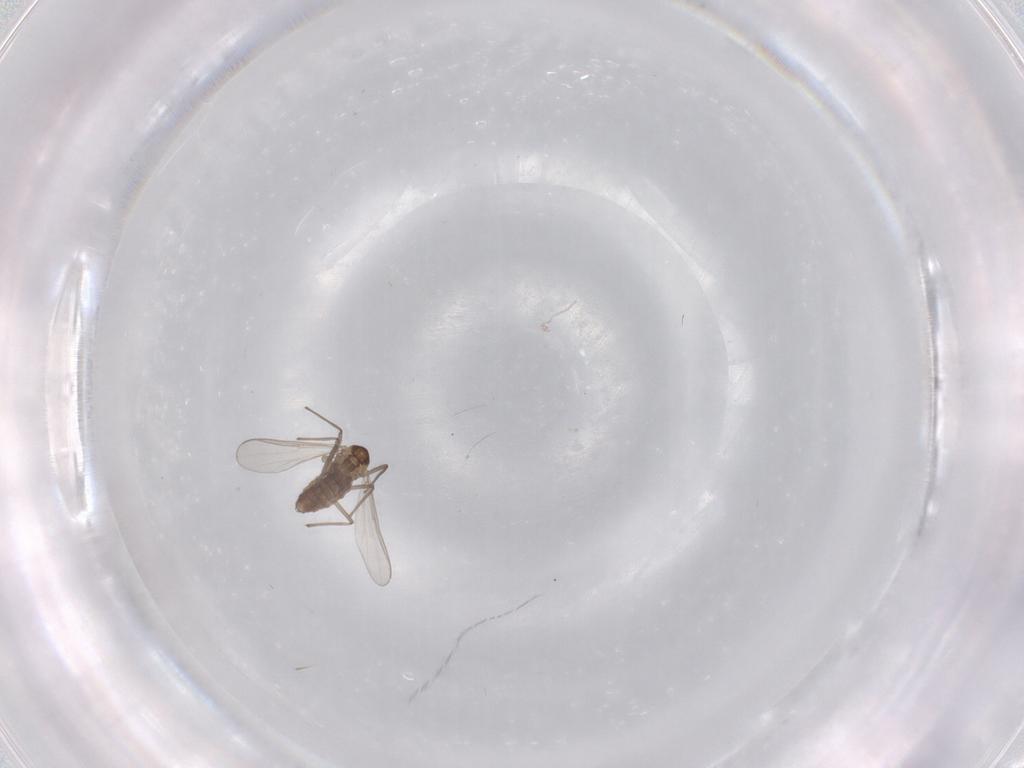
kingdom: Animalia
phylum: Arthropoda
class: Insecta
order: Diptera
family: Chironomidae
